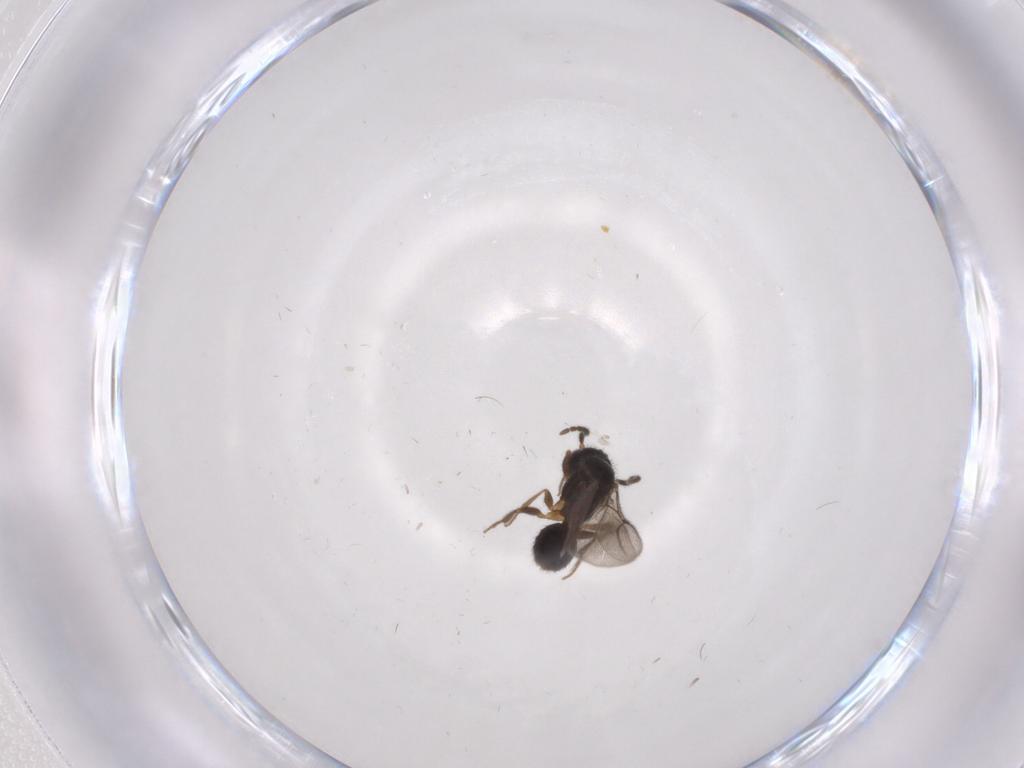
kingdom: Animalia
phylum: Arthropoda
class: Insecta
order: Hymenoptera
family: Bethylidae
